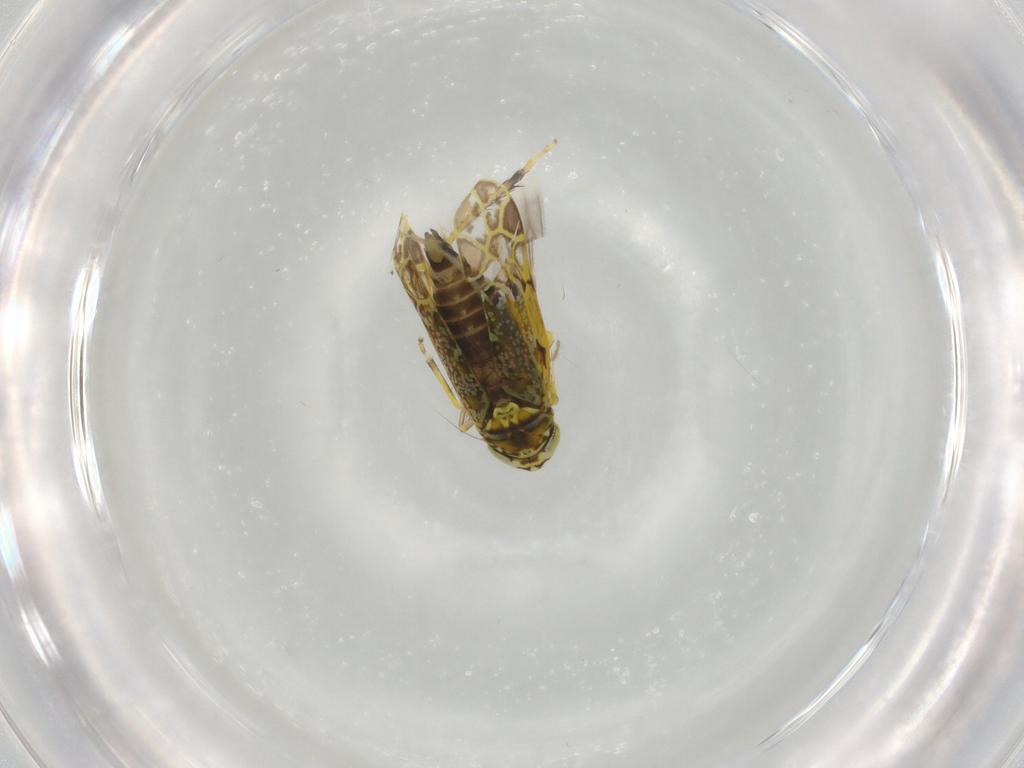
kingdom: Animalia
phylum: Arthropoda
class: Insecta
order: Hemiptera
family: Cicadellidae
